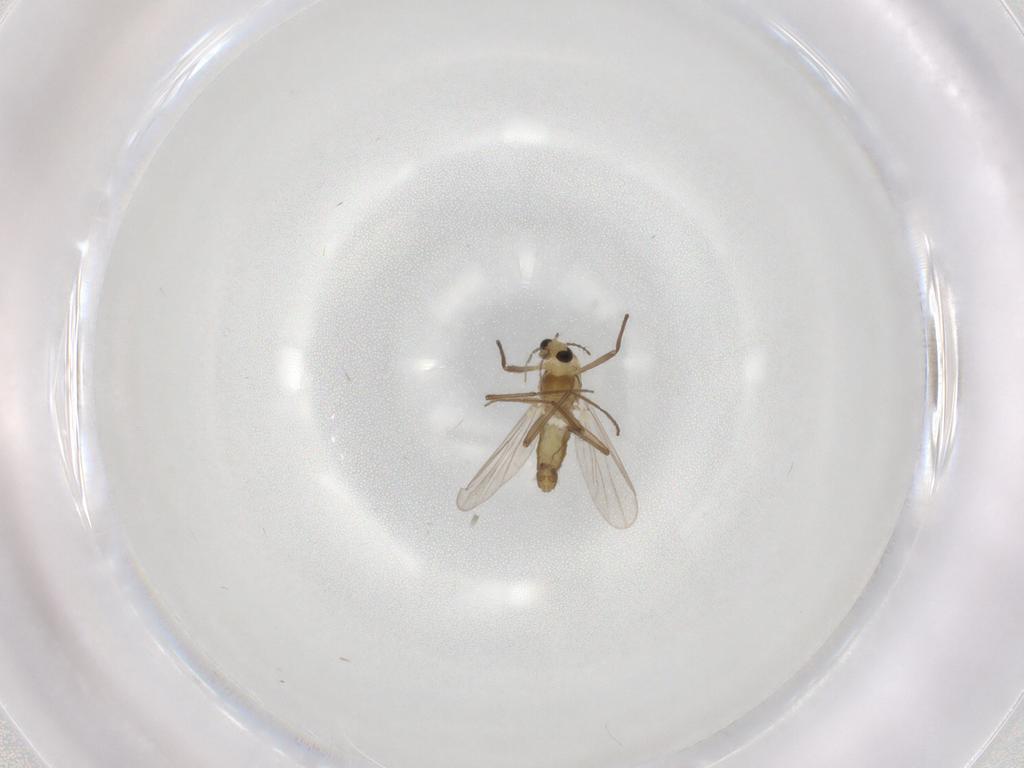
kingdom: Animalia
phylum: Arthropoda
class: Insecta
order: Diptera
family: Chironomidae
